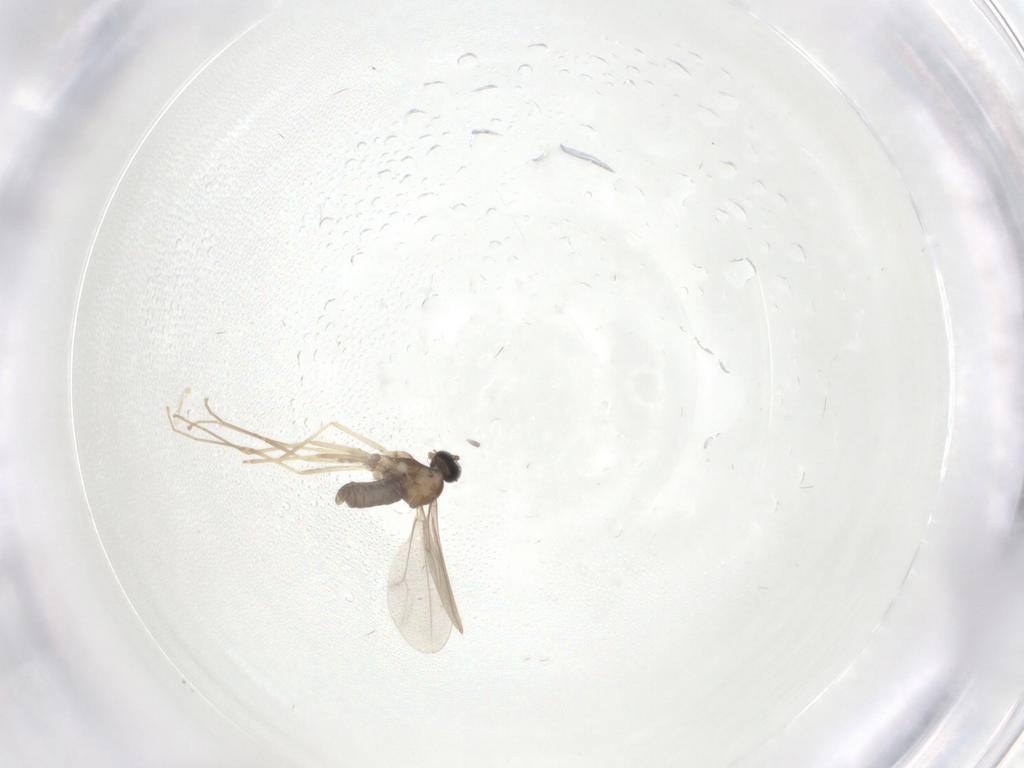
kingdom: Animalia
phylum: Arthropoda
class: Insecta
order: Diptera
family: Cecidomyiidae
